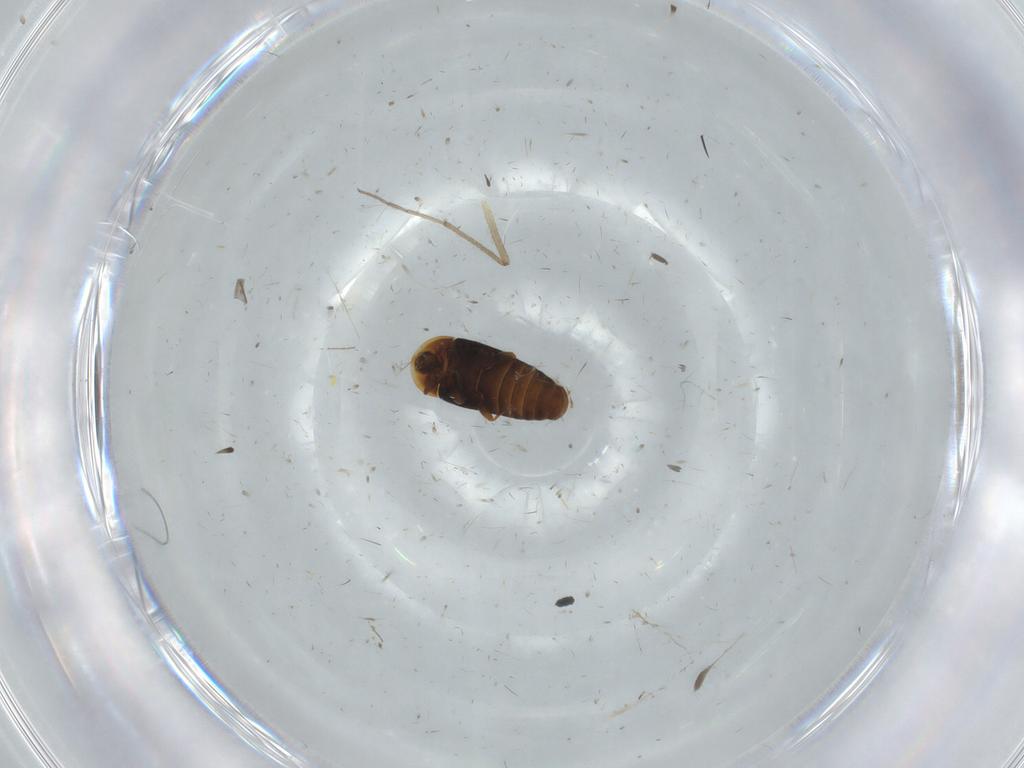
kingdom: Animalia
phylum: Arthropoda
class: Insecta
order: Coleoptera
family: Corylophidae
